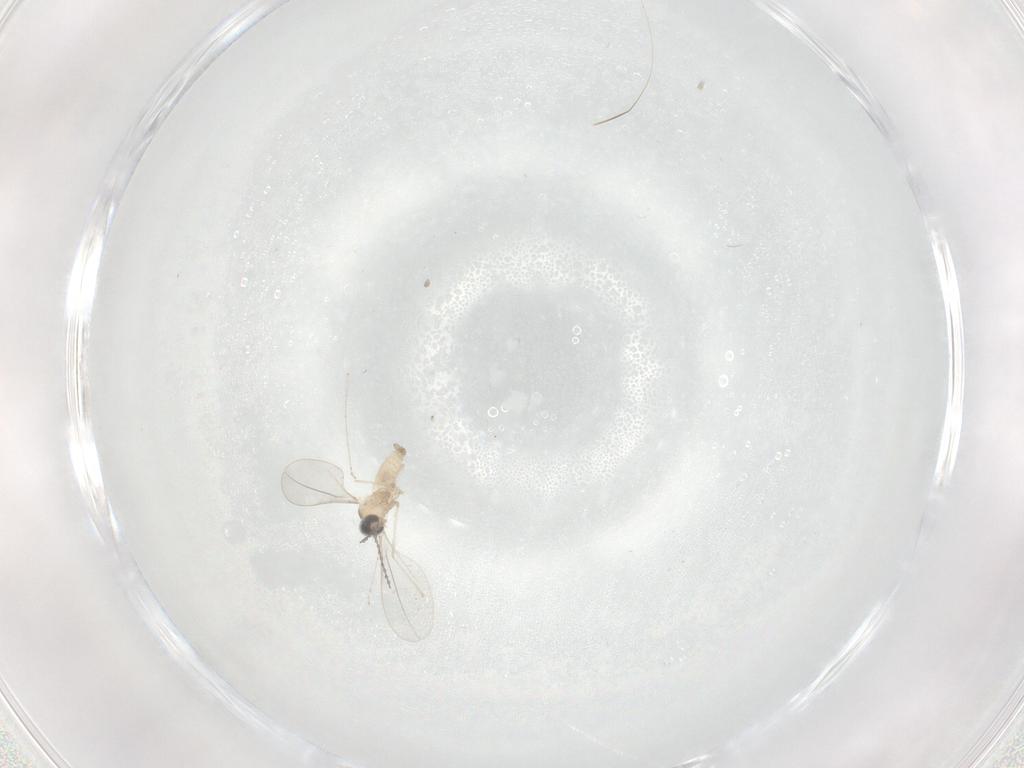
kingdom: Animalia
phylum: Arthropoda
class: Insecta
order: Diptera
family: Cecidomyiidae
